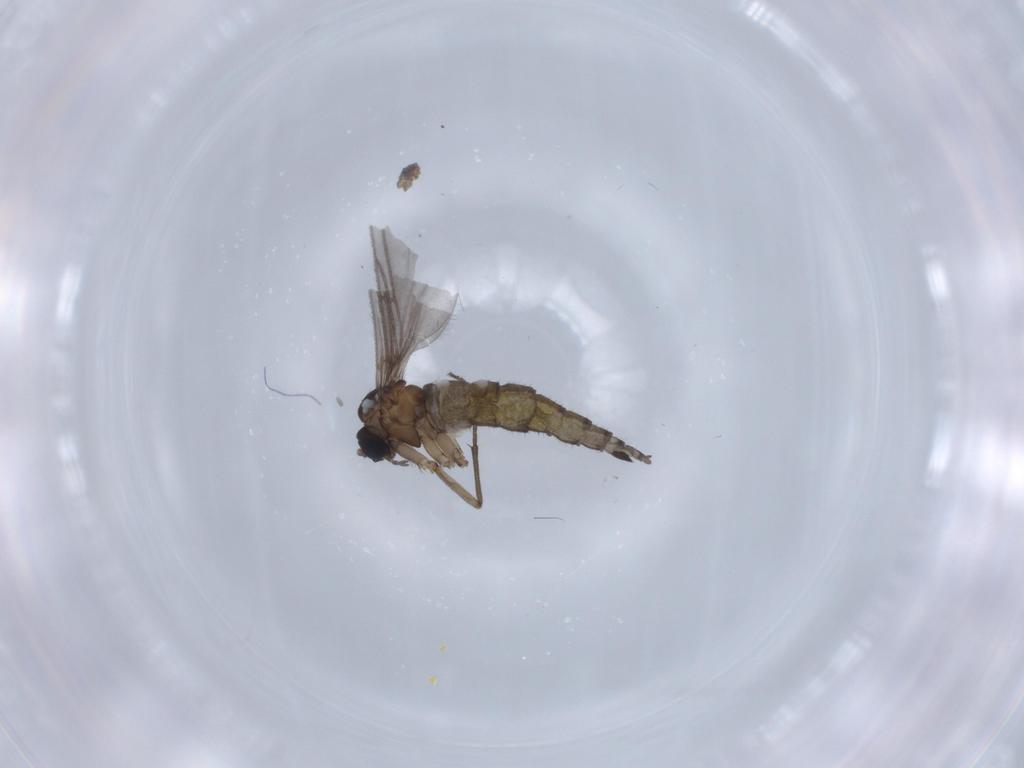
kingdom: Animalia
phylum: Arthropoda
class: Insecta
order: Diptera
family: Sciaridae
